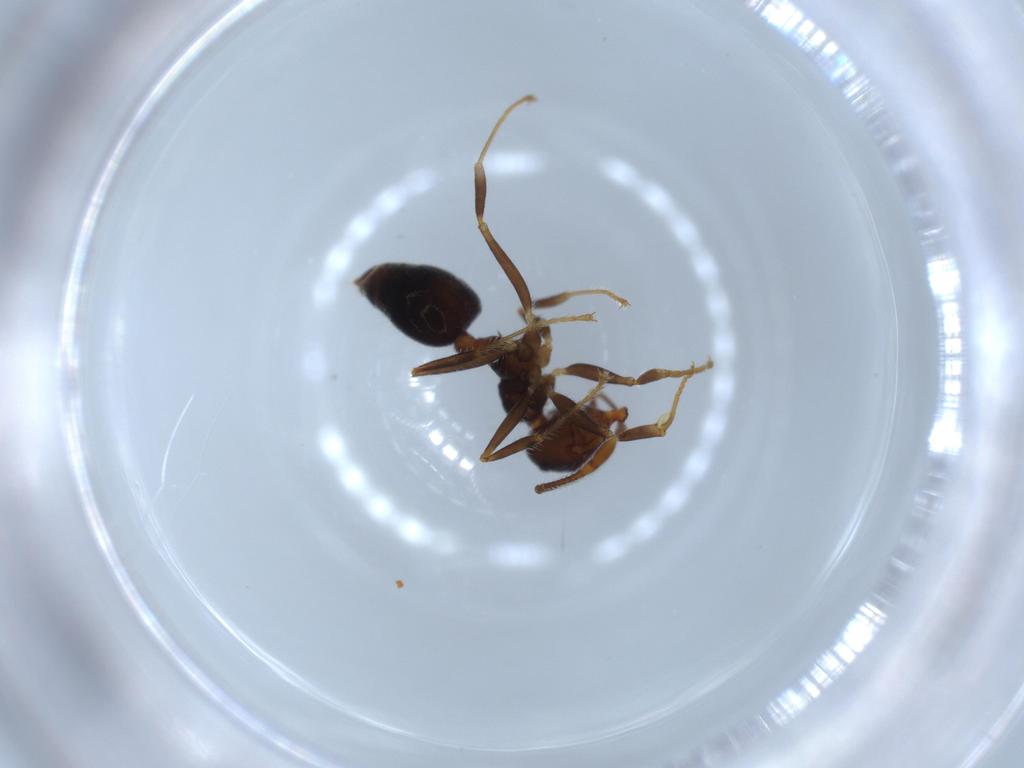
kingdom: Animalia
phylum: Arthropoda
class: Insecta
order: Hymenoptera
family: Formicidae
